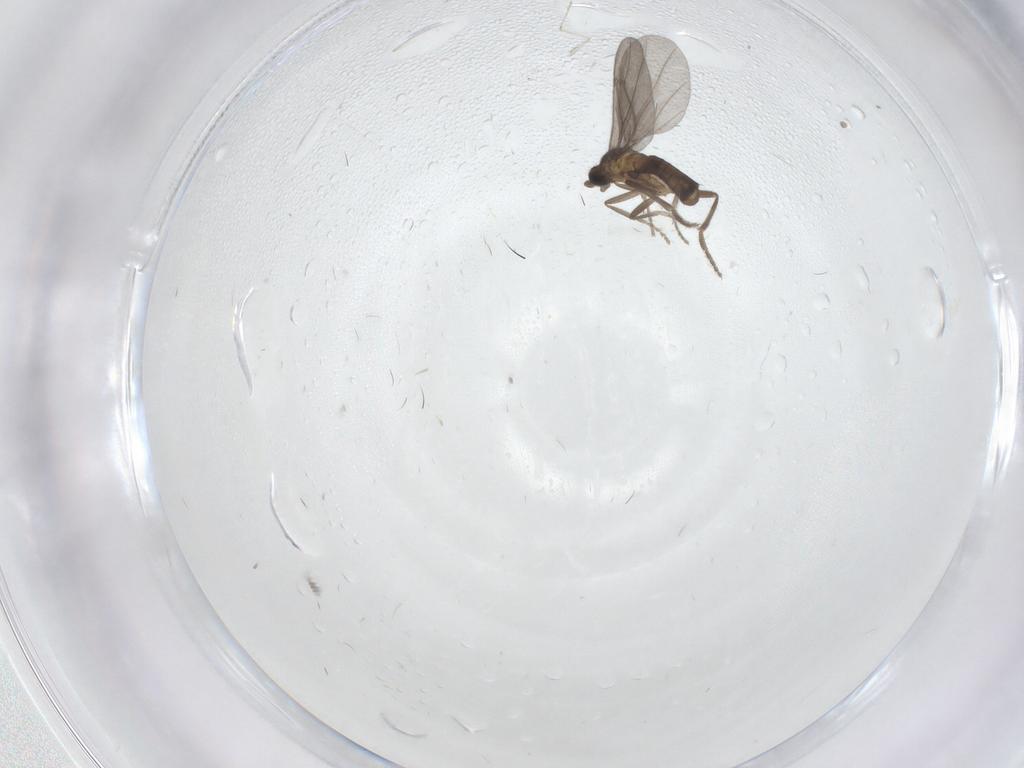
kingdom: Animalia
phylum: Arthropoda
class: Insecta
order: Diptera
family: Phoridae
